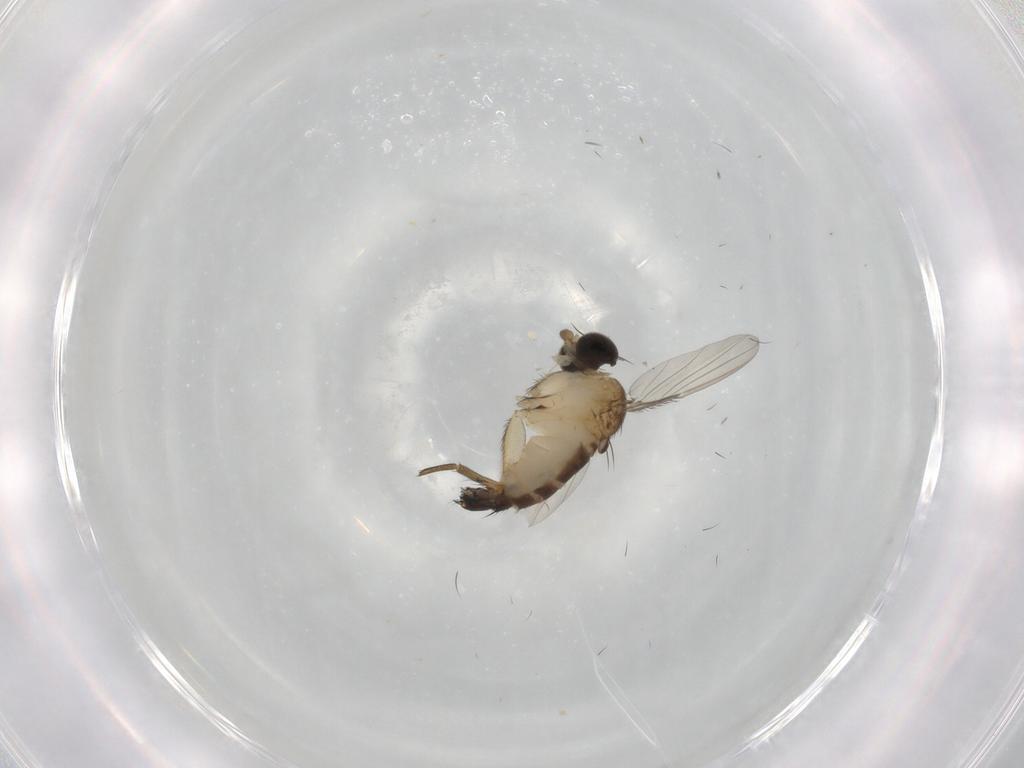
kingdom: Animalia
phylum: Arthropoda
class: Insecta
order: Diptera
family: Phoridae
